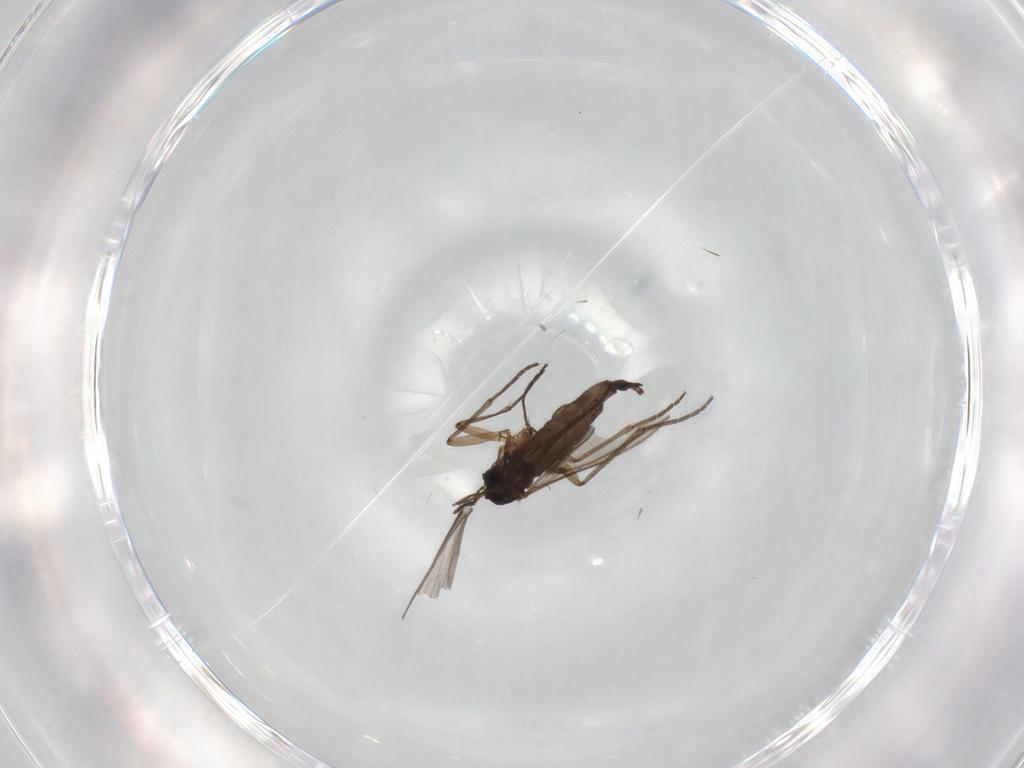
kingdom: Animalia
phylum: Arthropoda
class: Insecta
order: Diptera
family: Sciaridae
